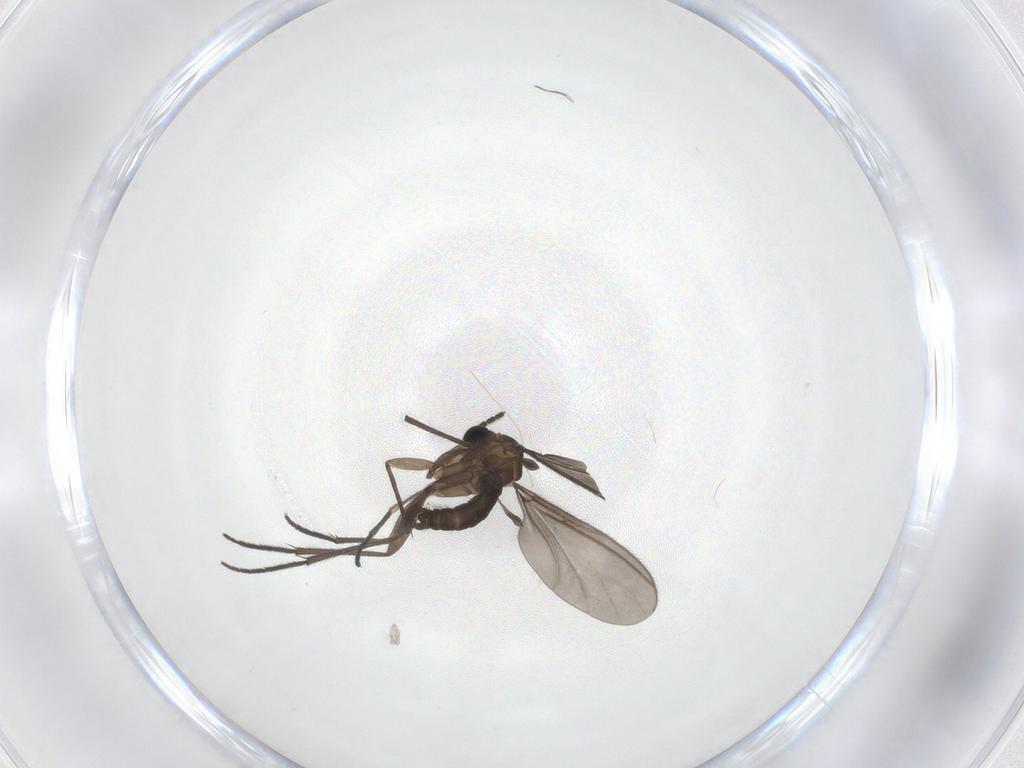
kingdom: Animalia
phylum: Arthropoda
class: Insecta
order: Diptera
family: Sciaridae
